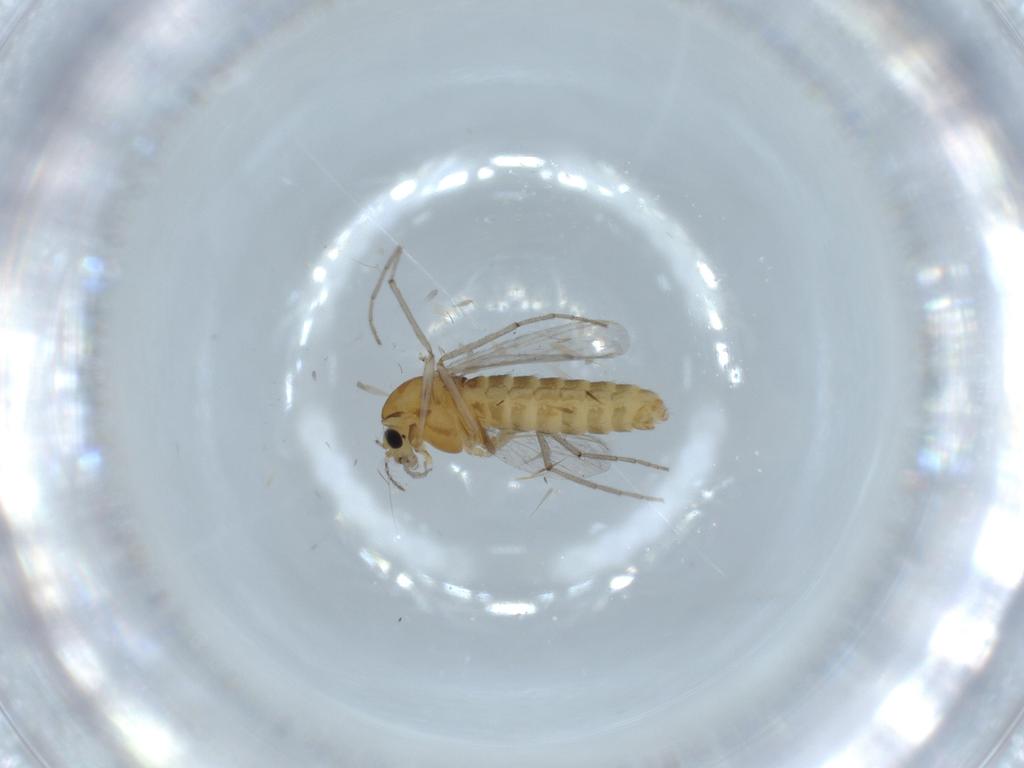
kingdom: Animalia
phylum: Arthropoda
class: Insecta
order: Diptera
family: Chironomidae
